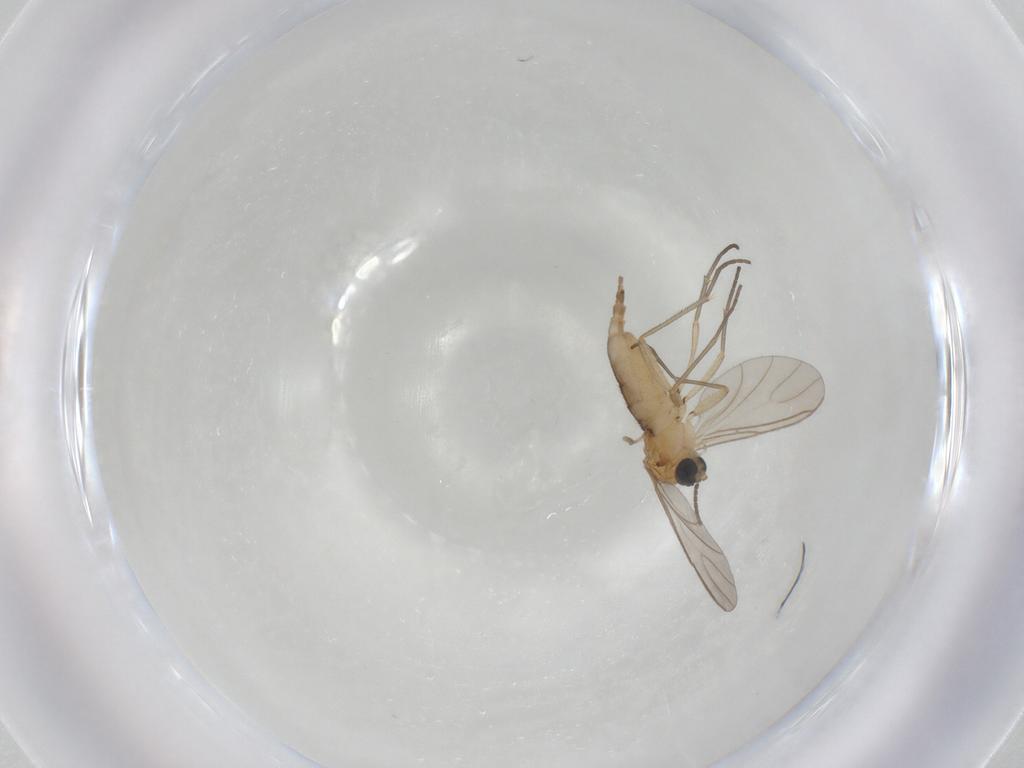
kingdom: Animalia
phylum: Arthropoda
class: Insecta
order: Diptera
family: Sciaridae
